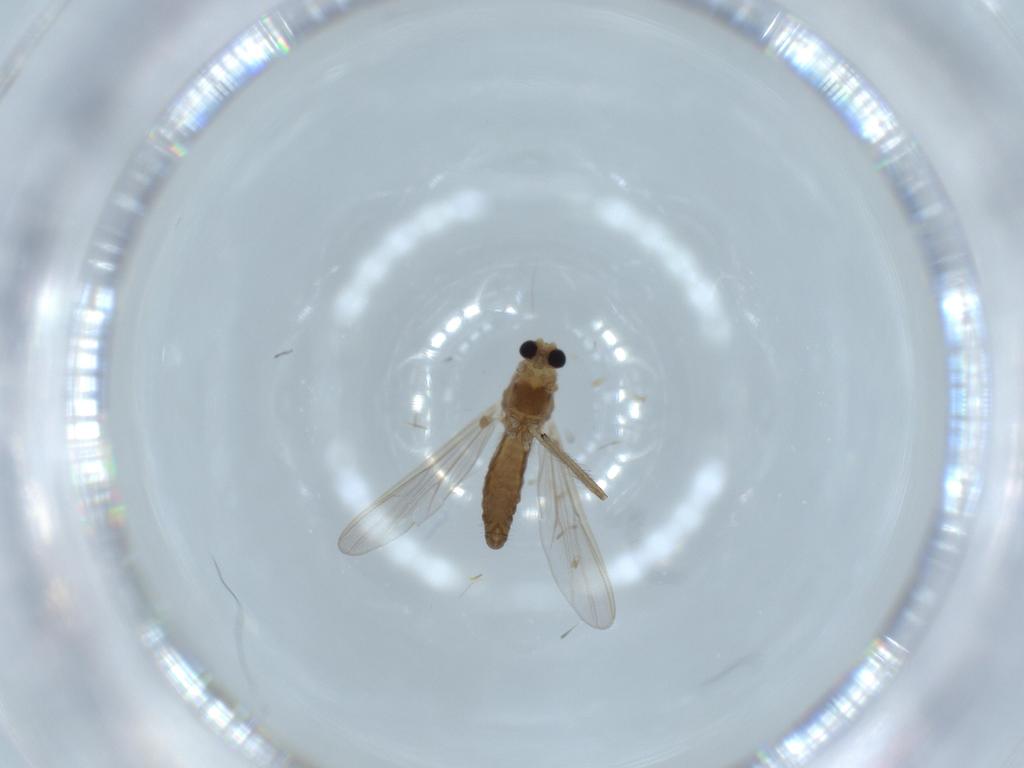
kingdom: Animalia
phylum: Arthropoda
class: Insecta
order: Diptera
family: Chironomidae
